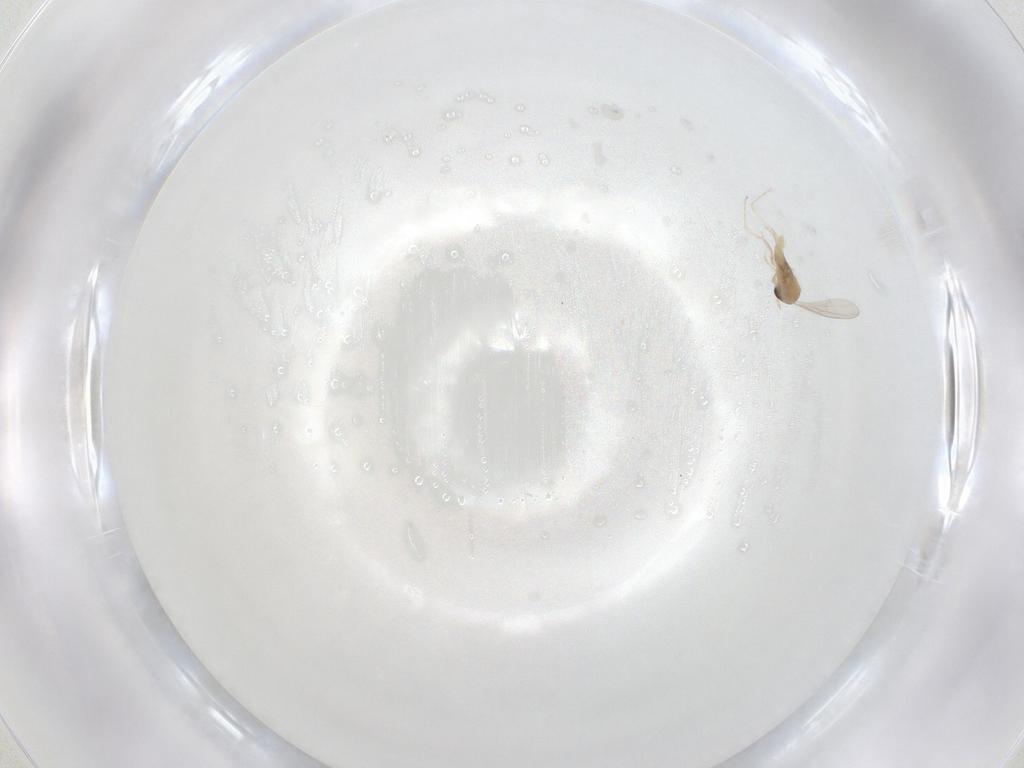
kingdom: Animalia
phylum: Arthropoda
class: Insecta
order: Diptera
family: Cecidomyiidae
